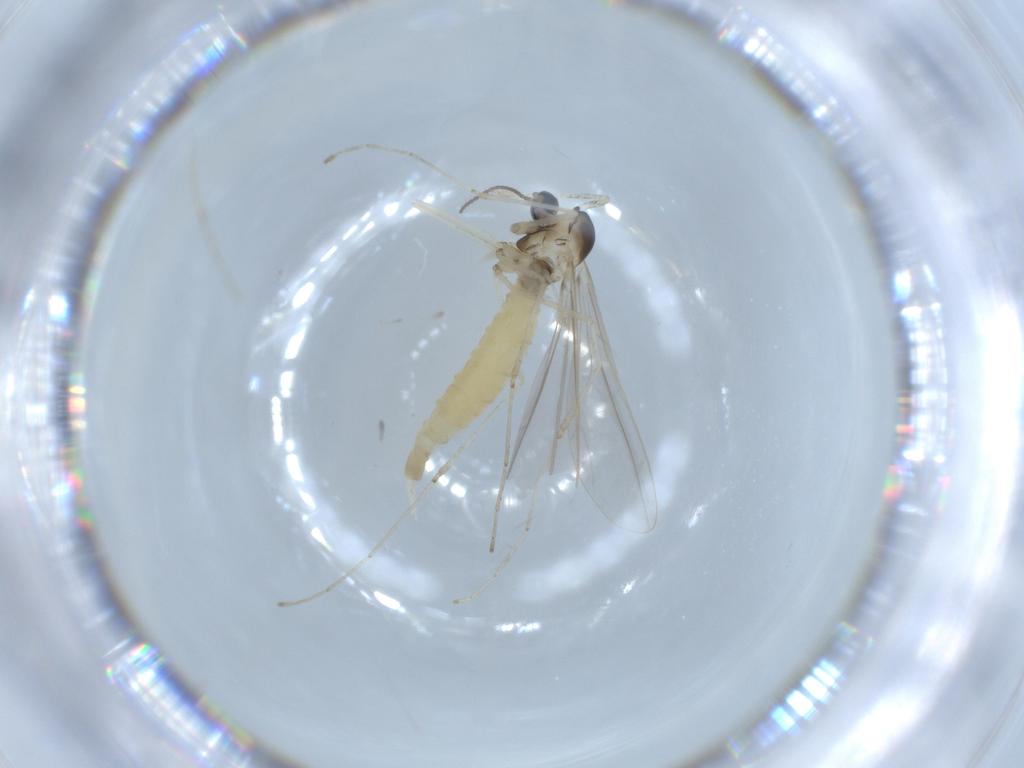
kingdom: Animalia
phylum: Arthropoda
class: Insecta
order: Diptera
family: Cecidomyiidae
